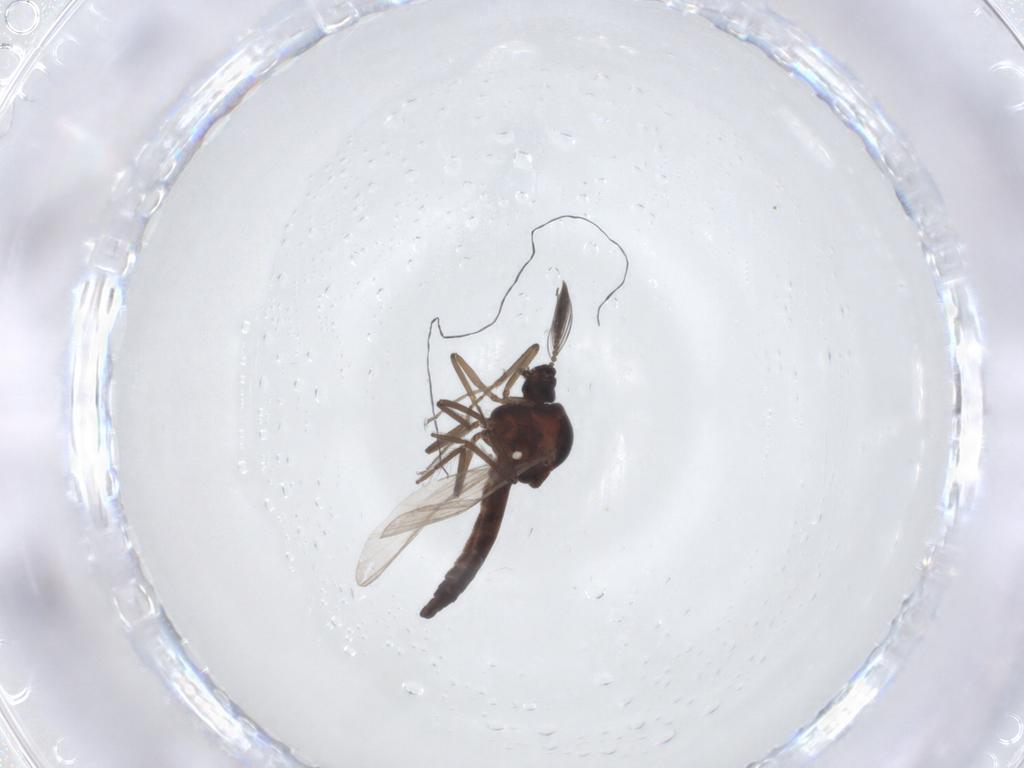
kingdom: Animalia
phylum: Arthropoda
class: Insecta
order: Diptera
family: Ceratopogonidae
